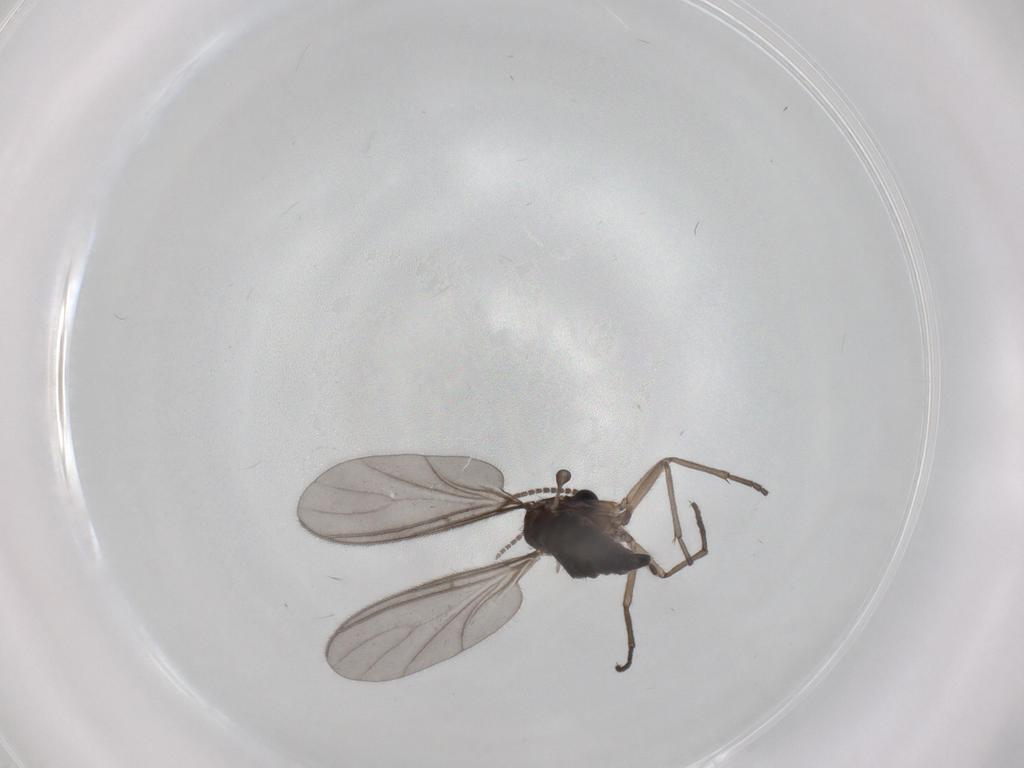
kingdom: Animalia
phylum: Arthropoda
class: Insecta
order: Diptera
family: Sciaridae
